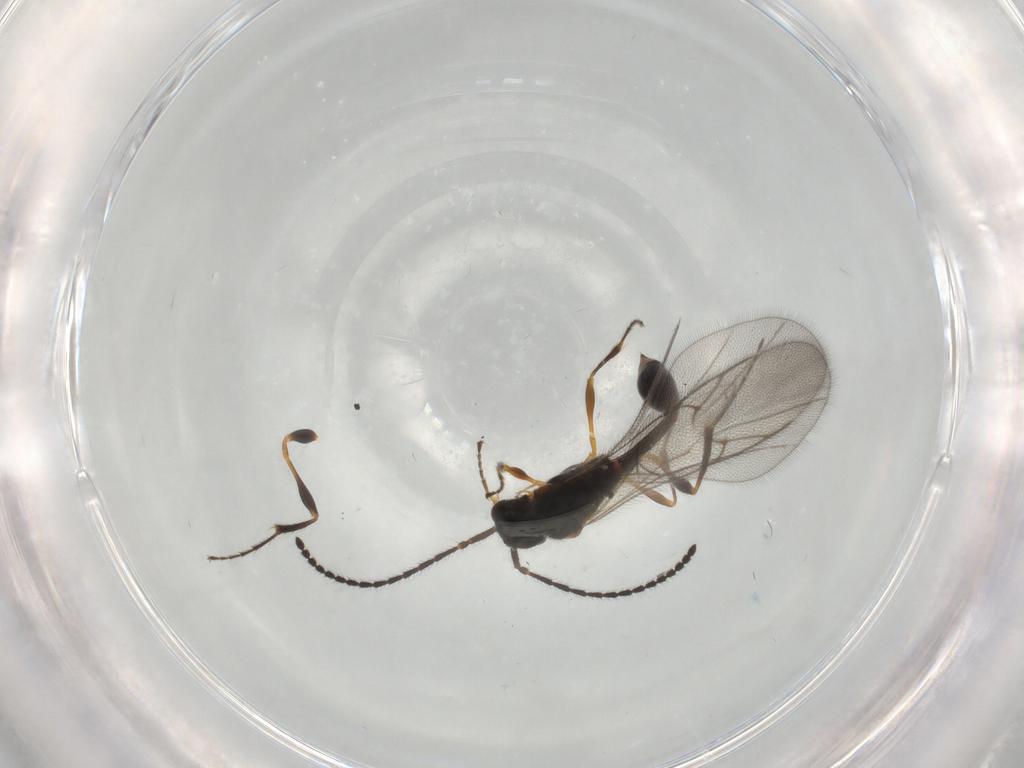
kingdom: Animalia
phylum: Arthropoda
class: Insecta
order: Hymenoptera
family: Diapriidae
